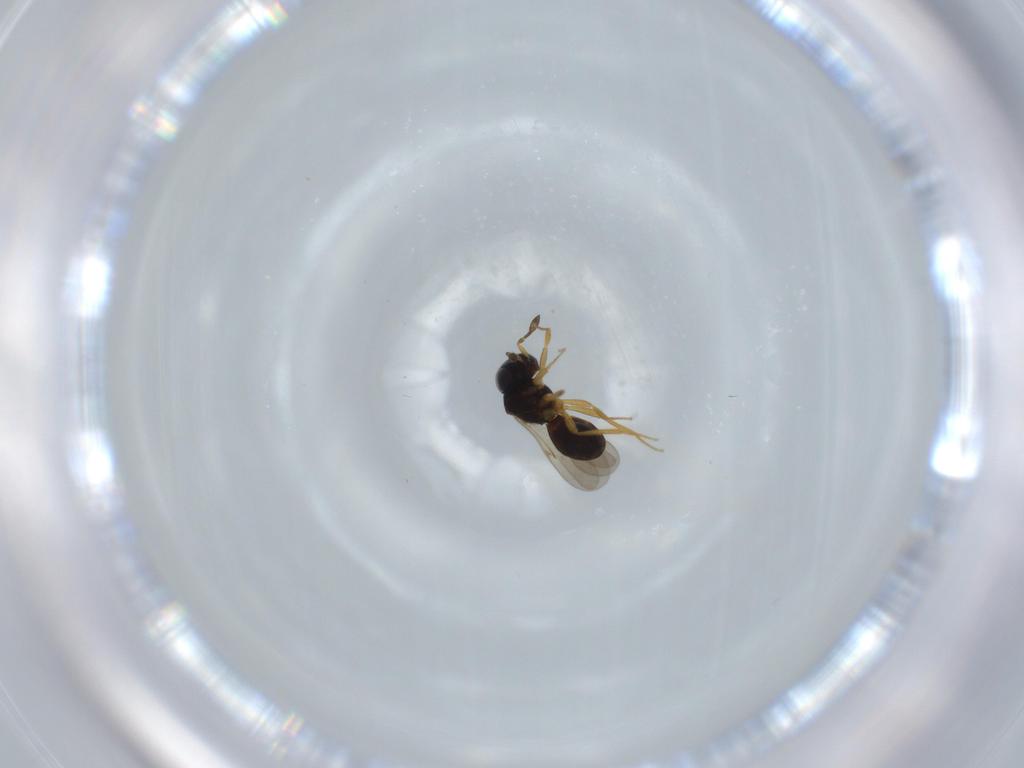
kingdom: Animalia
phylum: Arthropoda
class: Insecta
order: Hymenoptera
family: Scelionidae
